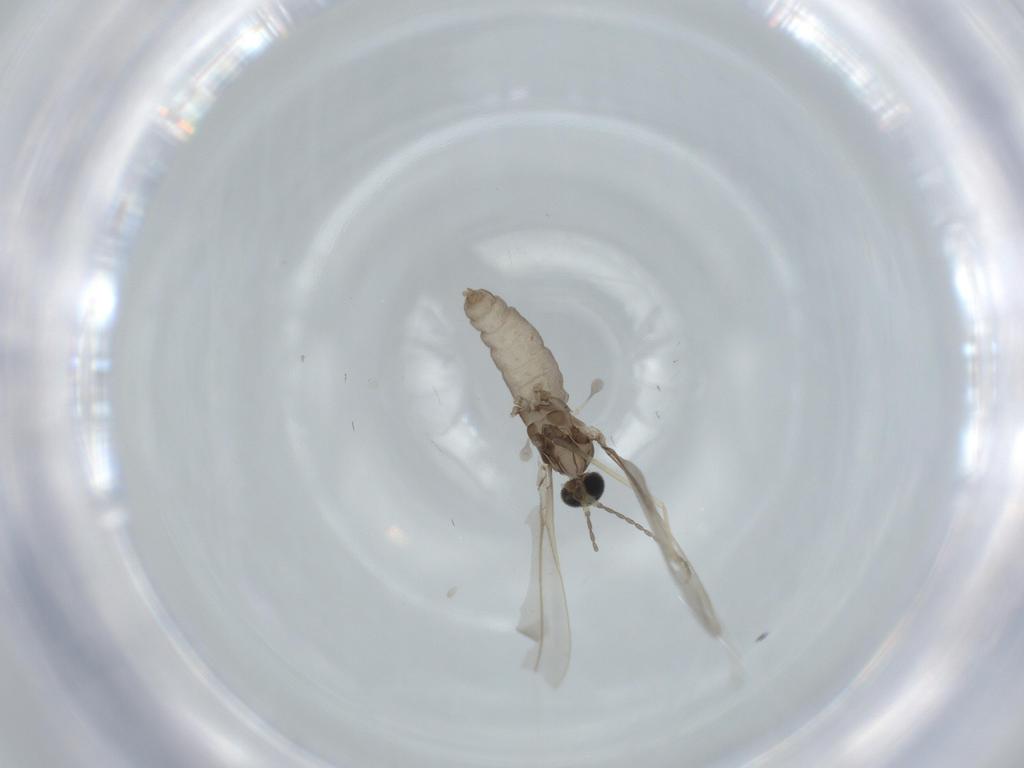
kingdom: Animalia
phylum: Arthropoda
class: Insecta
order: Diptera
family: Cecidomyiidae
